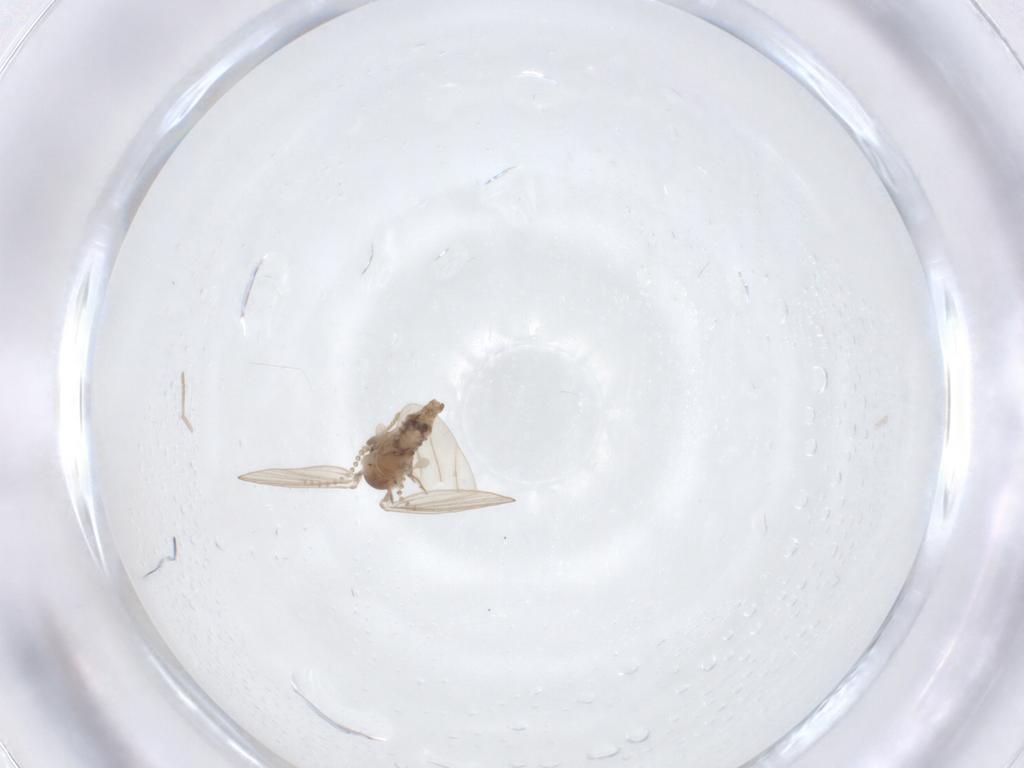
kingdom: Animalia
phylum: Arthropoda
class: Insecta
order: Diptera
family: Psychodidae
